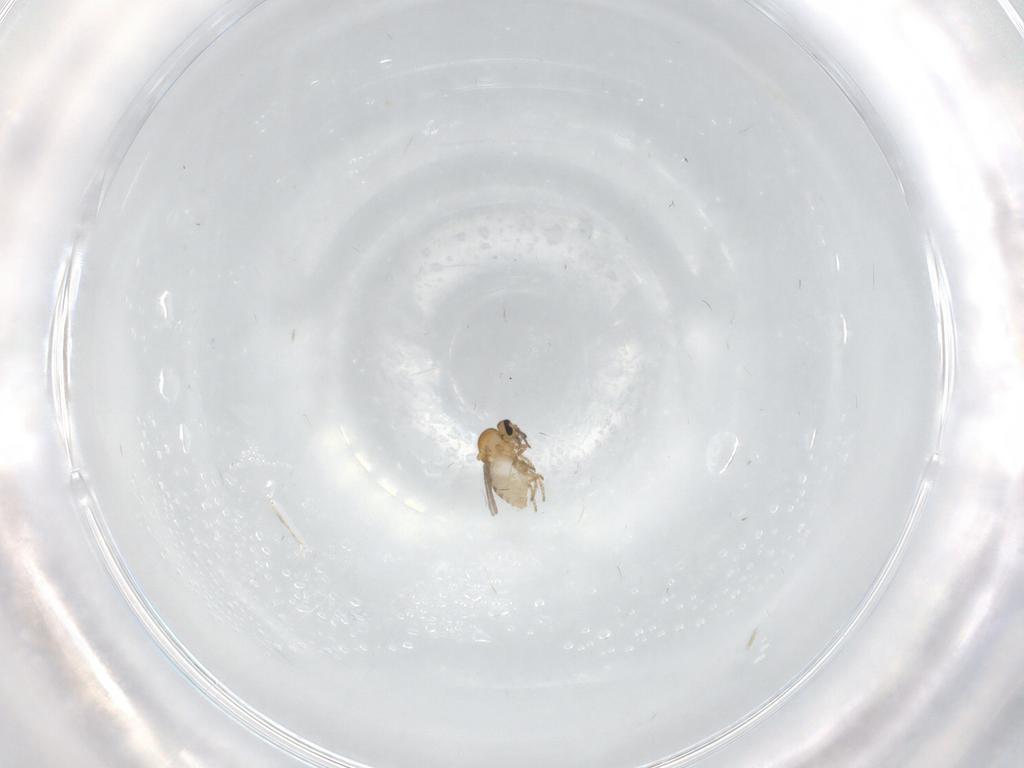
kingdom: Animalia
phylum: Arthropoda
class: Insecta
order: Diptera
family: Ceratopogonidae
